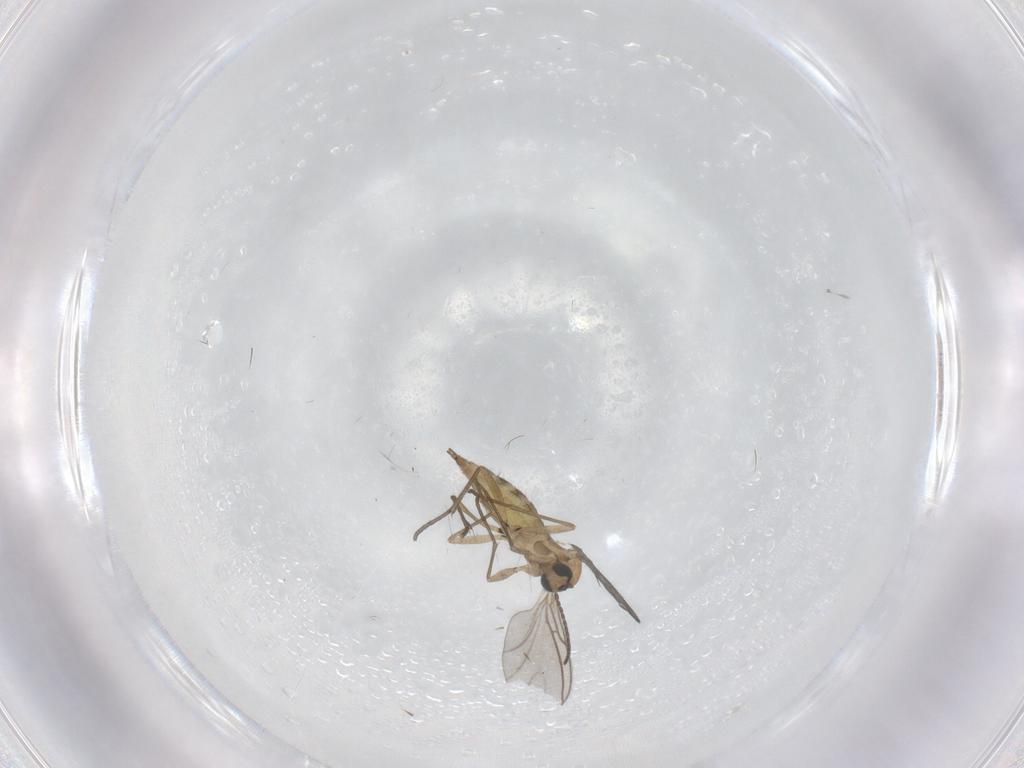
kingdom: Animalia
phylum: Arthropoda
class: Insecta
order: Diptera
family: Sciaridae
